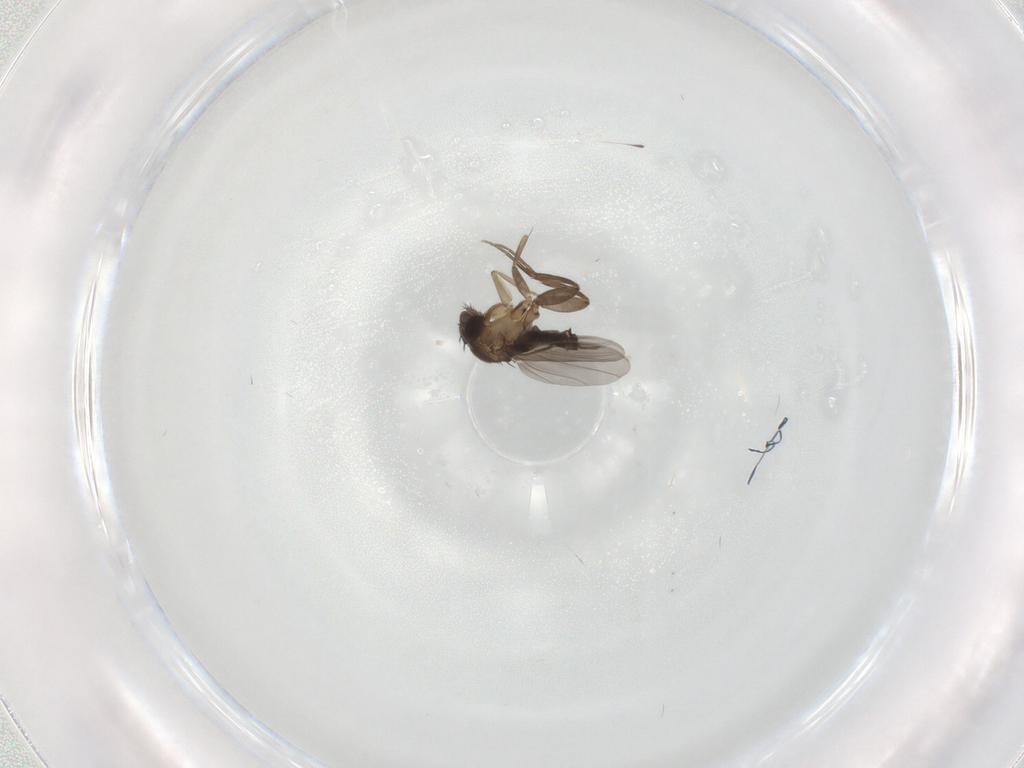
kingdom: Animalia
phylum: Arthropoda
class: Insecta
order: Diptera
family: Phoridae
